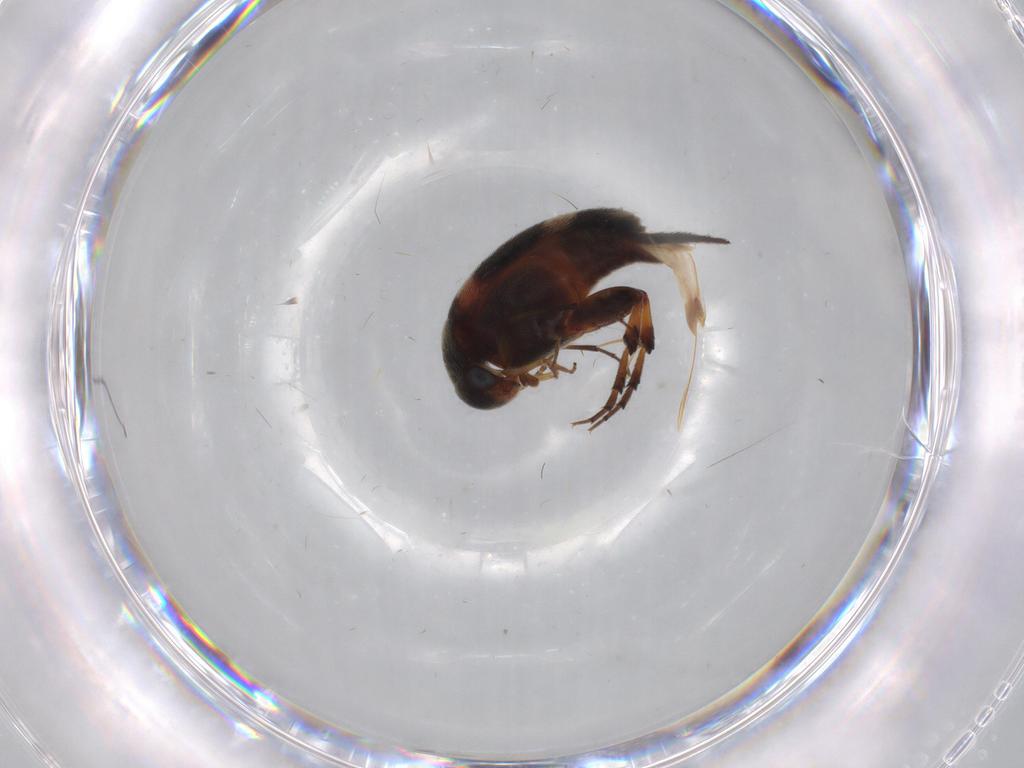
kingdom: Animalia
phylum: Arthropoda
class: Insecta
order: Coleoptera
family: Mordellidae
